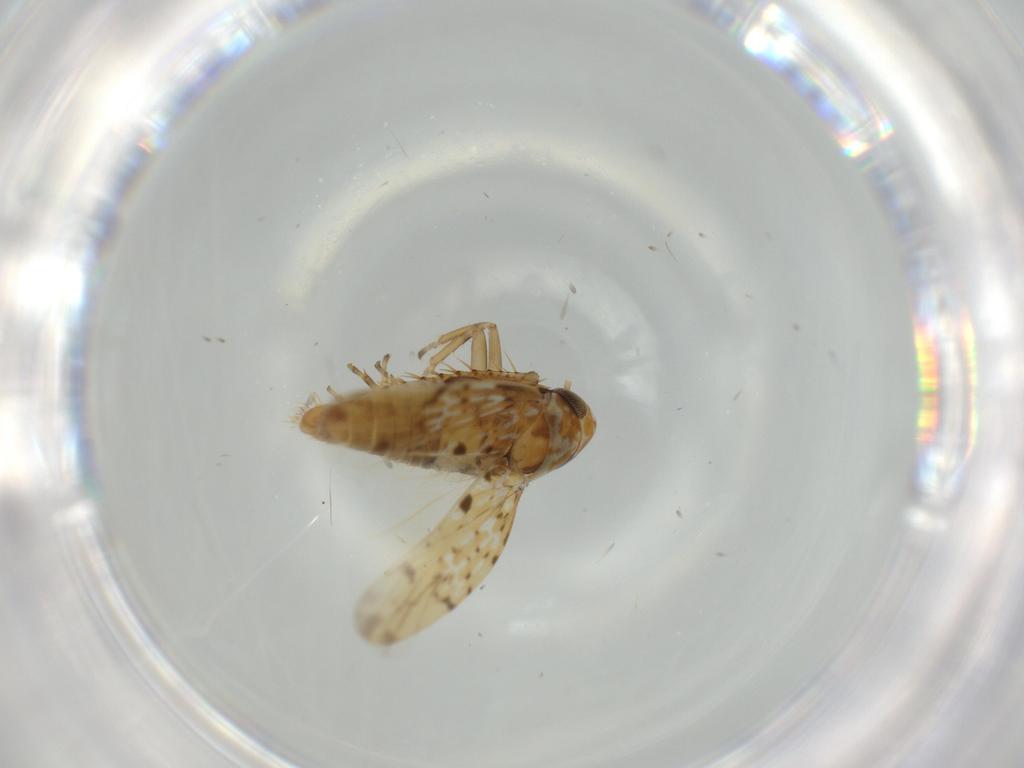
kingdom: Animalia
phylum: Arthropoda
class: Insecta
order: Hemiptera
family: Cicadellidae
